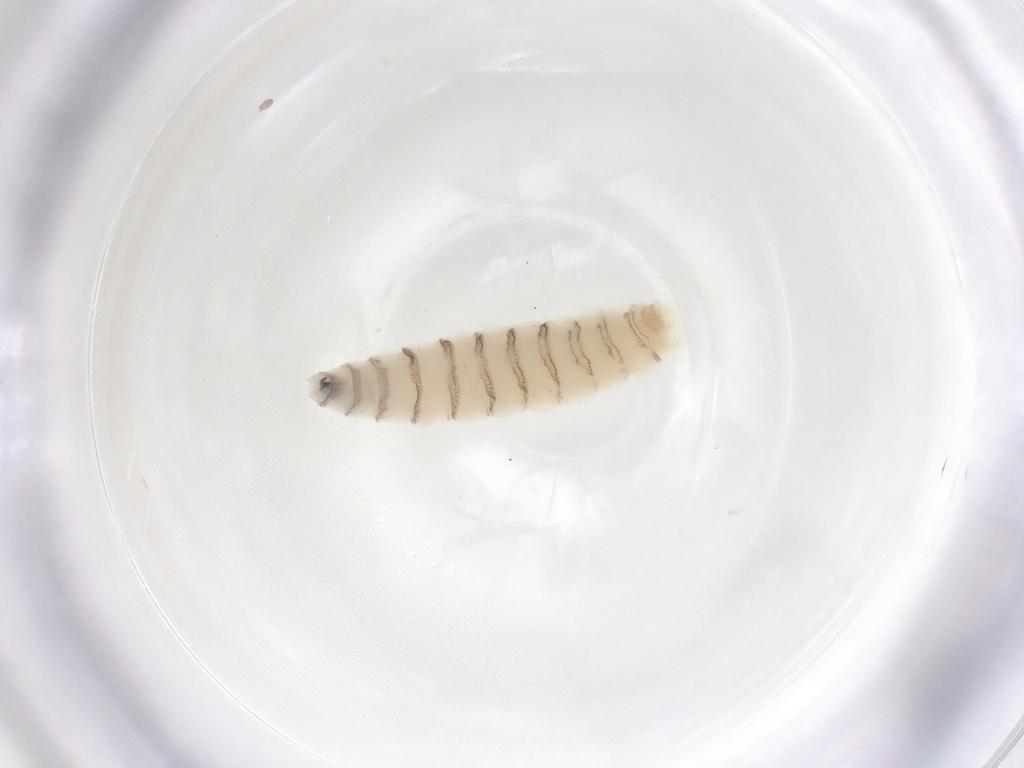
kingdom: Animalia
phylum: Arthropoda
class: Insecta
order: Diptera
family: Sarcophagidae
